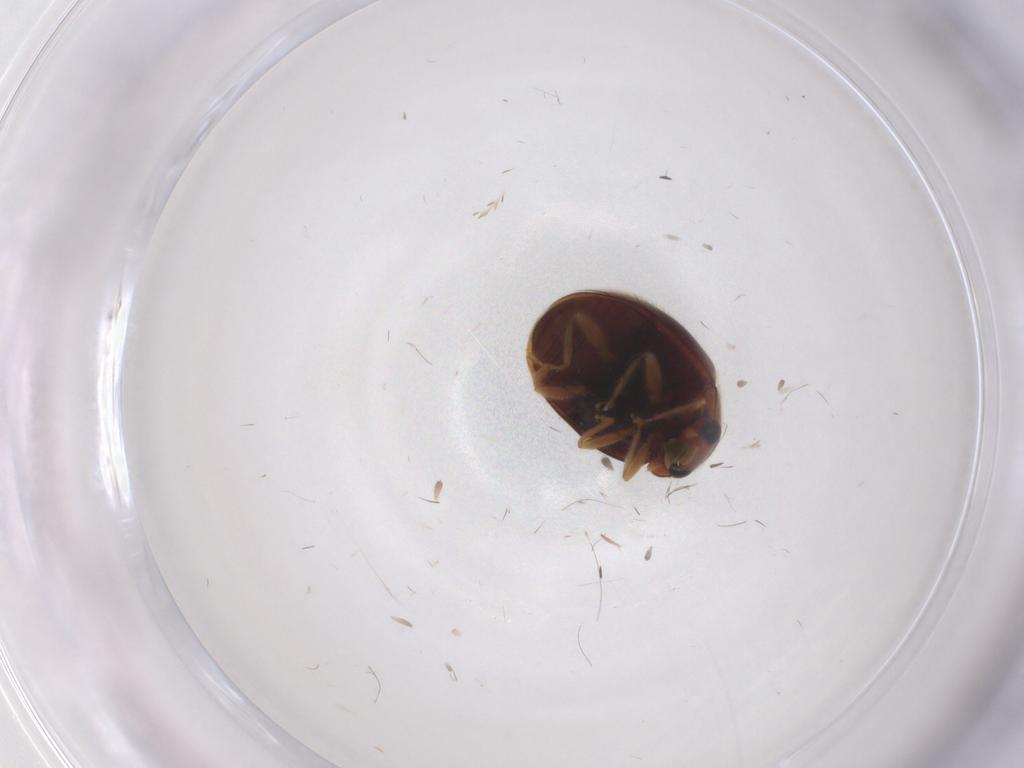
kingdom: Animalia
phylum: Arthropoda
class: Insecta
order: Coleoptera
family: Coccinellidae
